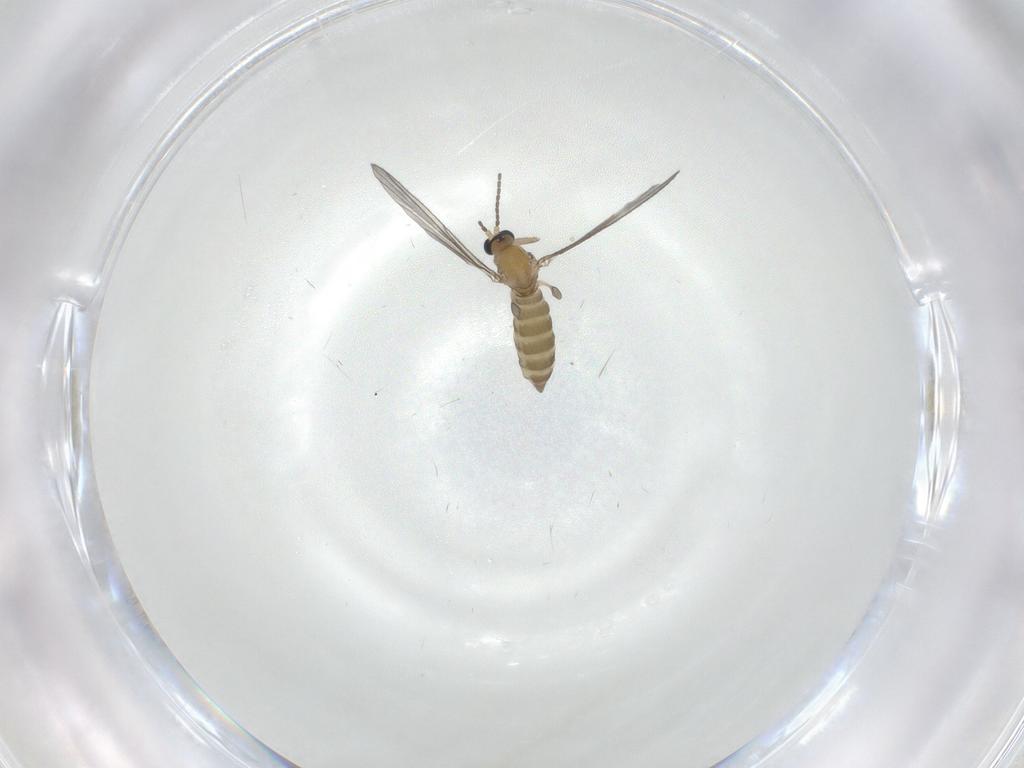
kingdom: Animalia
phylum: Arthropoda
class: Insecta
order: Diptera
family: Sciaridae
